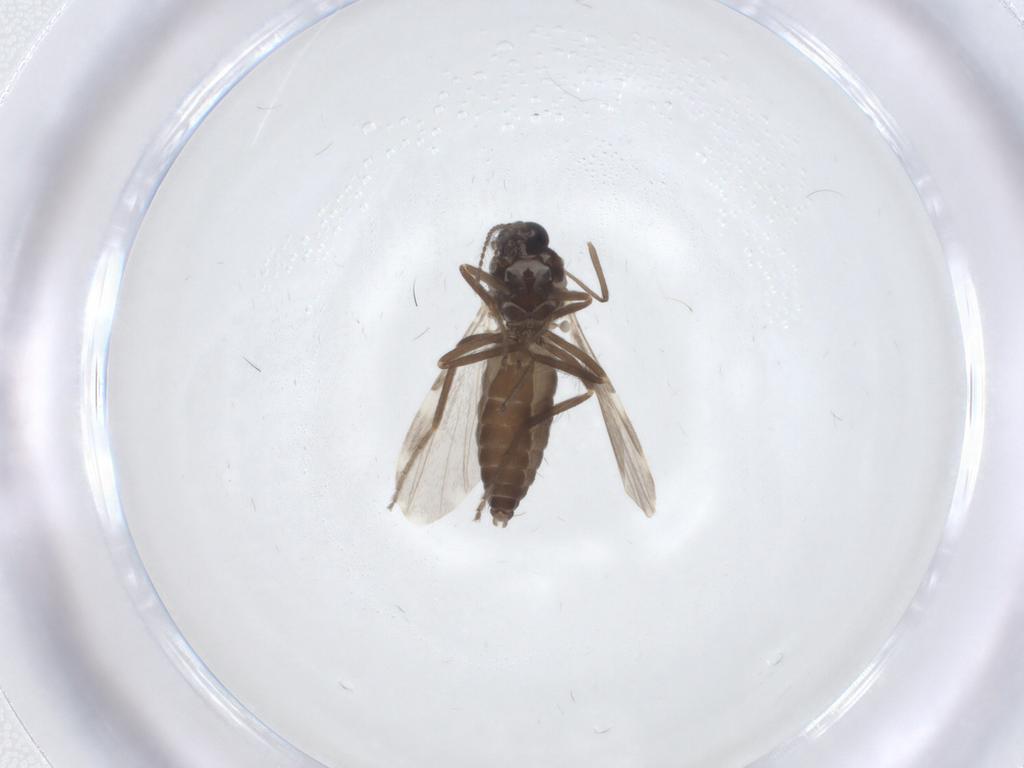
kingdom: Animalia
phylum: Arthropoda
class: Insecta
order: Diptera
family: Ceratopogonidae
